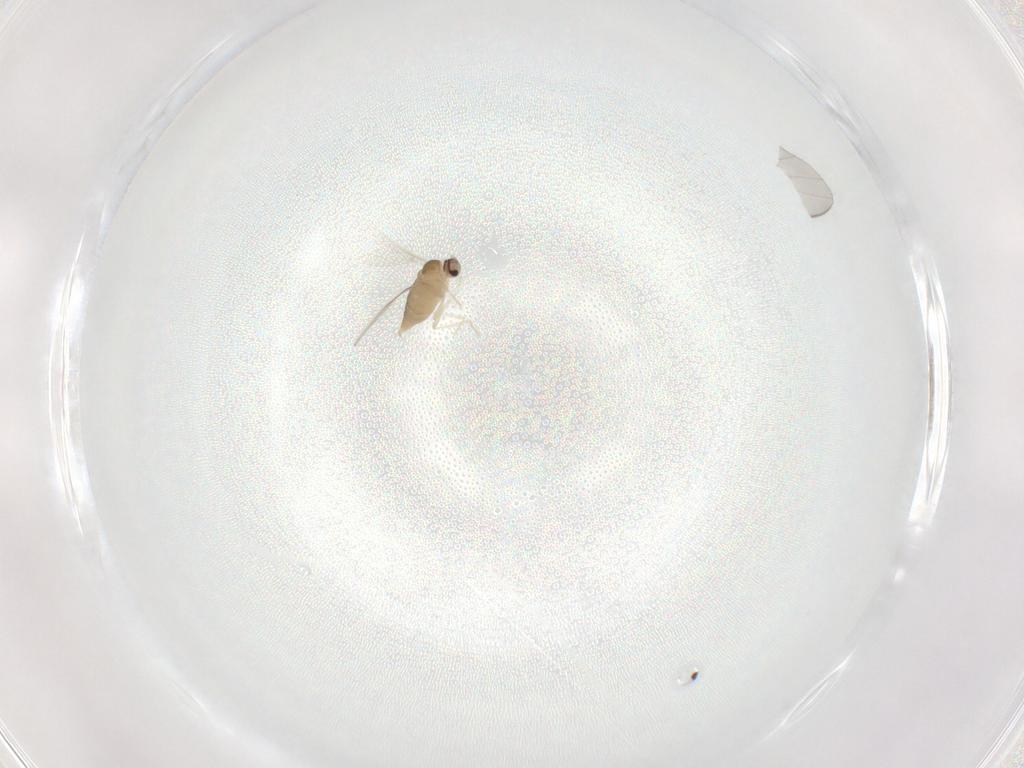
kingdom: Animalia
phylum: Arthropoda
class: Insecta
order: Diptera
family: Cecidomyiidae
